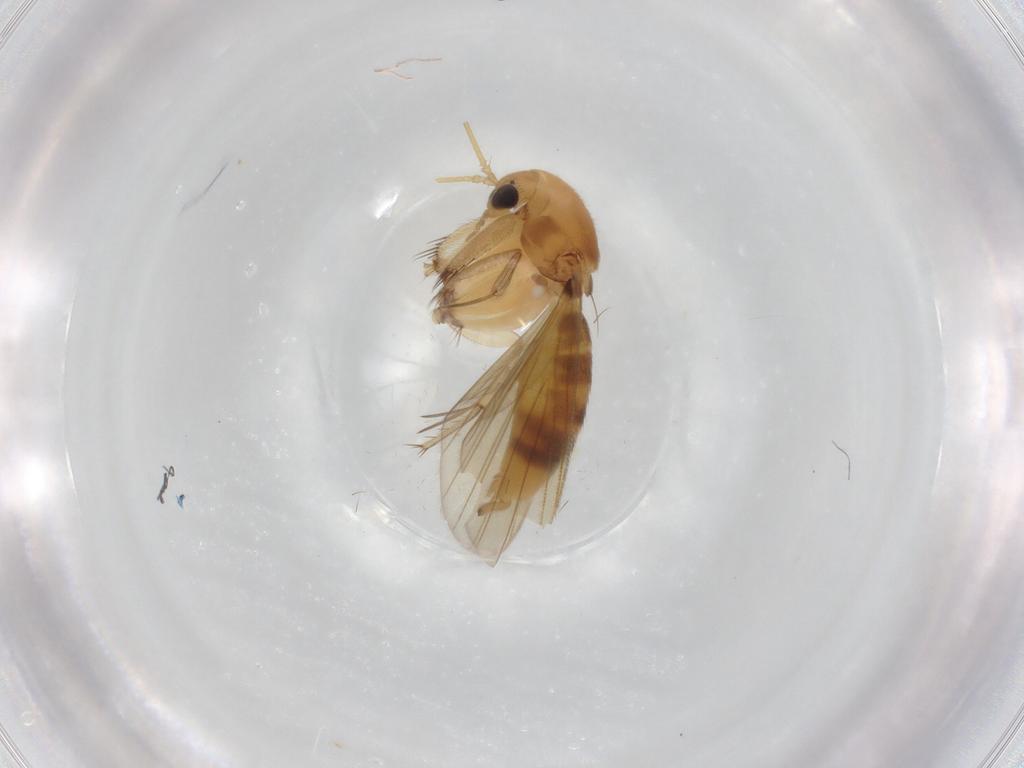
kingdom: Animalia
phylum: Arthropoda
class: Insecta
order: Diptera
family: Mycetophilidae
